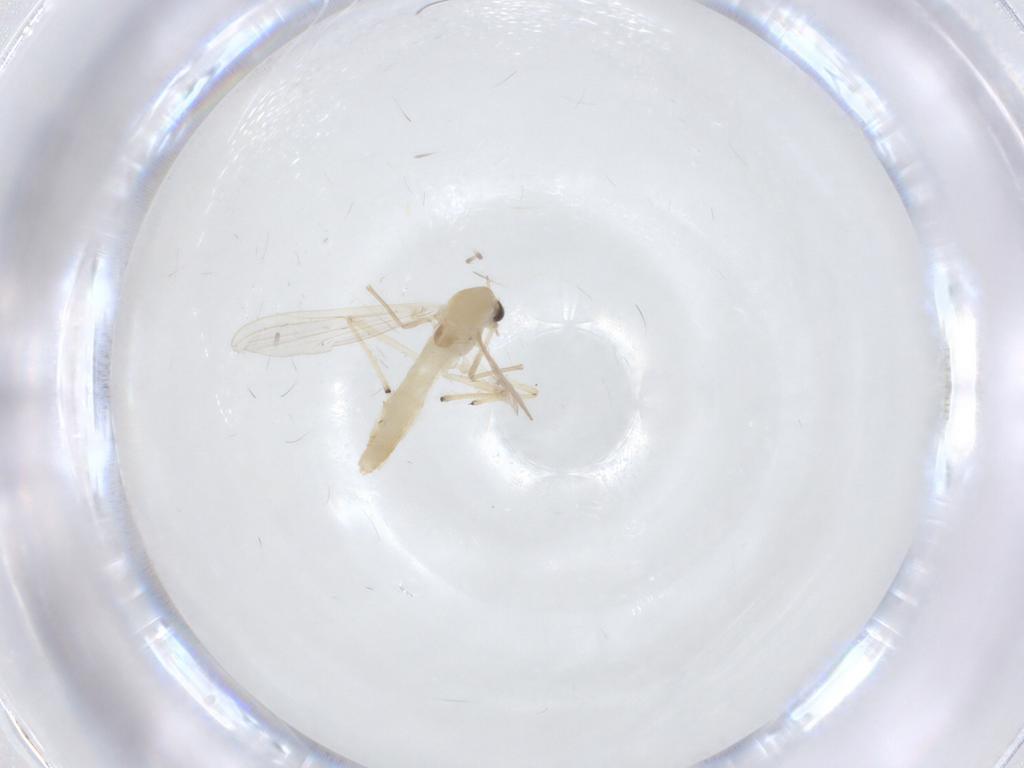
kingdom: Animalia
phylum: Arthropoda
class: Insecta
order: Diptera
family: Chironomidae
